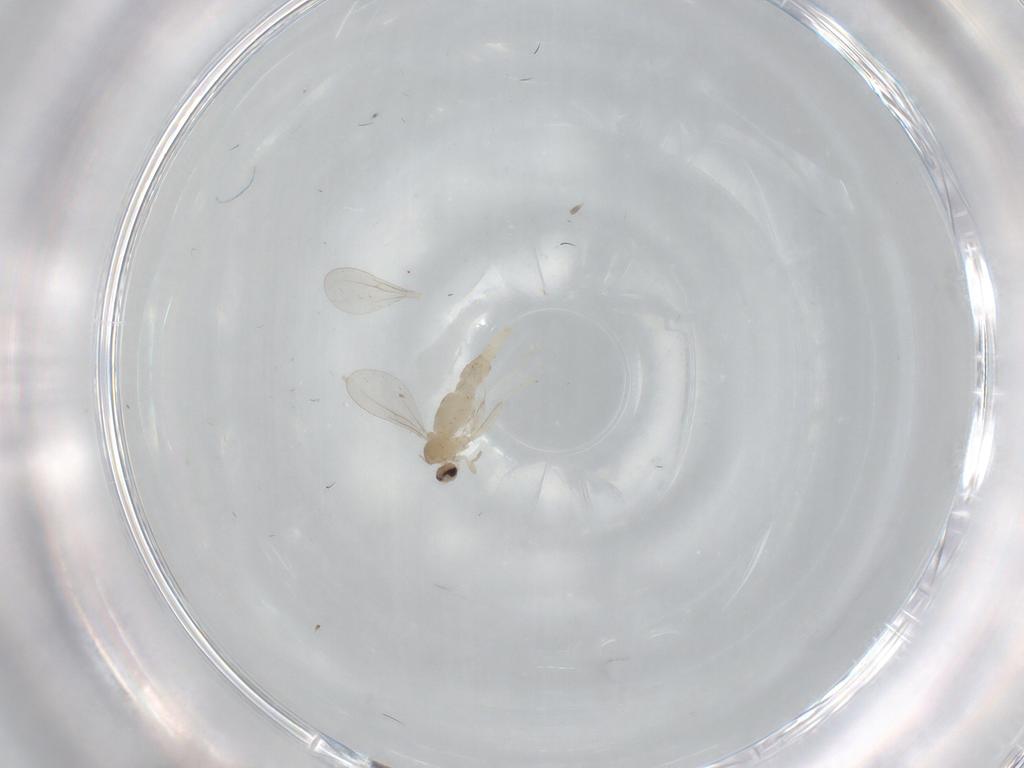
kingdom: Animalia
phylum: Arthropoda
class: Insecta
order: Diptera
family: Cecidomyiidae
